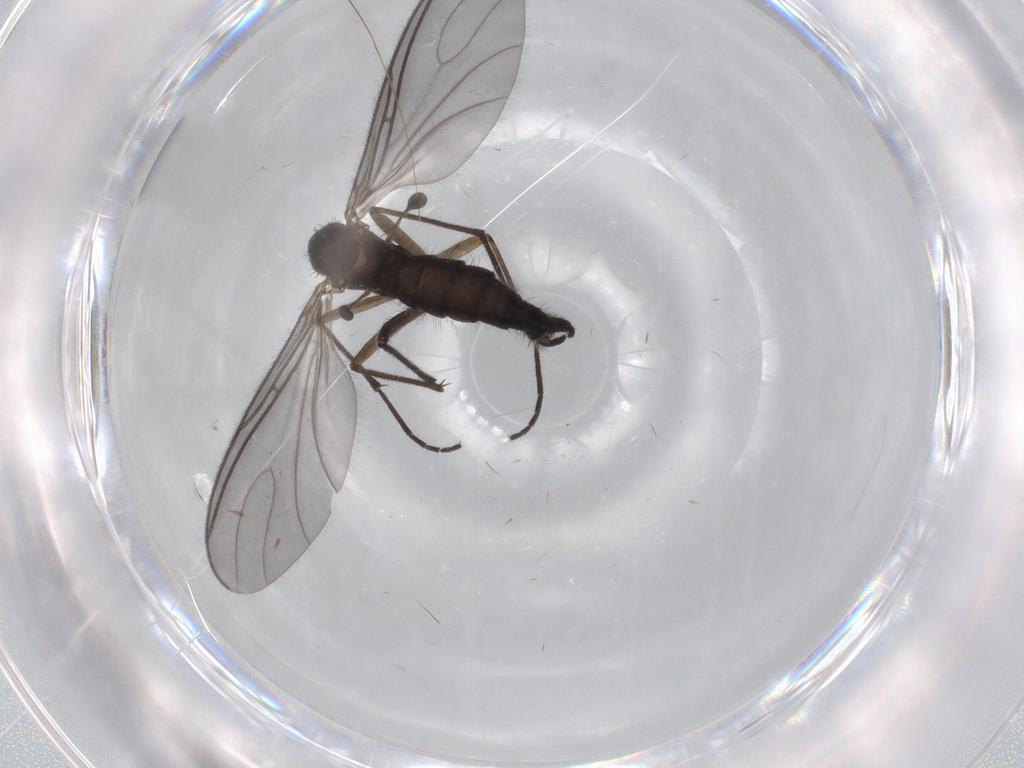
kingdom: Animalia
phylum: Arthropoda
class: Insecta
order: Diptera
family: Sciaridae
